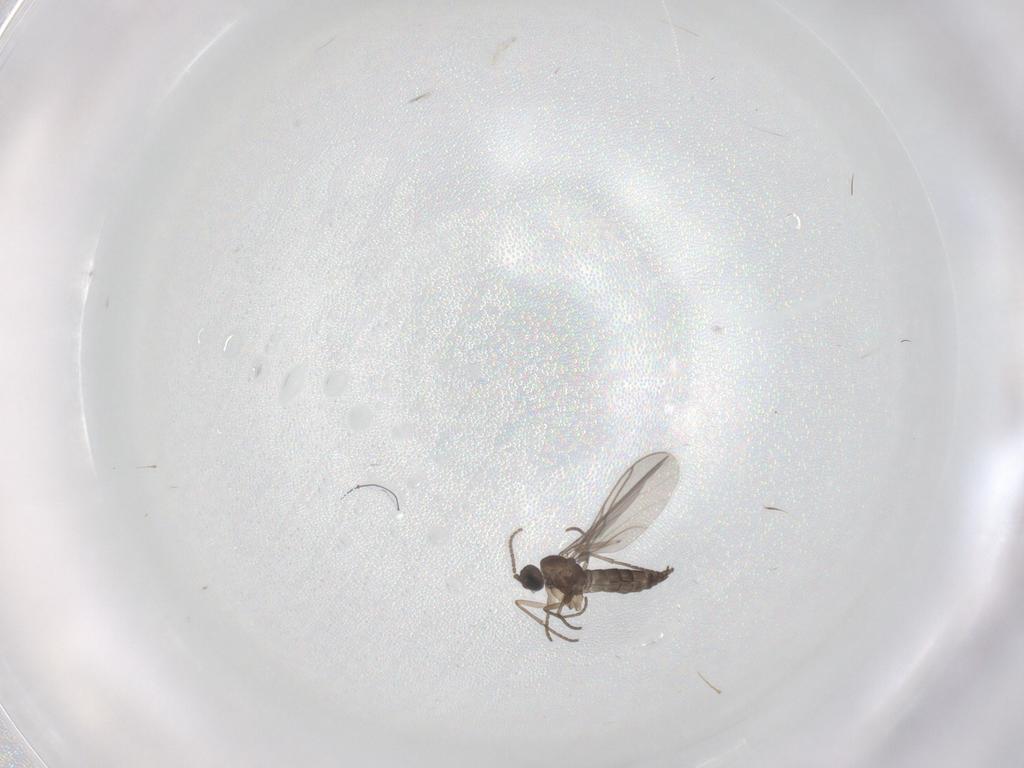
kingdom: Animalia
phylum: Arthropoda
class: Insecta
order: Diptera
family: Sciaridae
